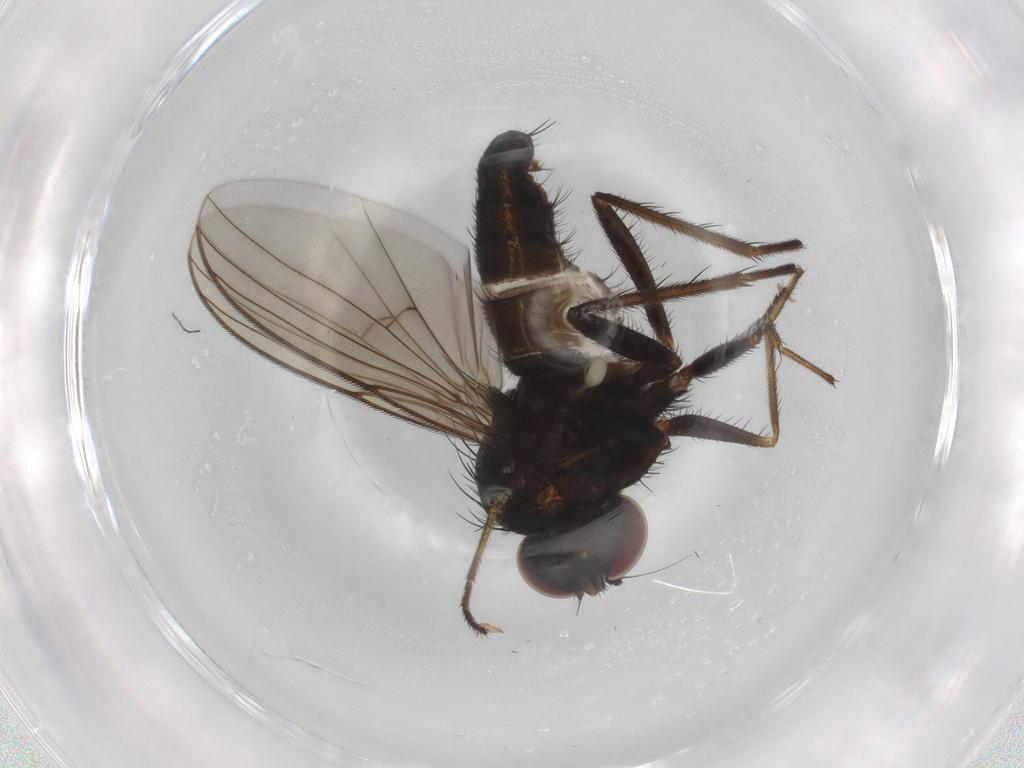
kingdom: Animalia
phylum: Arthropoda
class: Insecta
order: Diptera
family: Dolichopodidae
